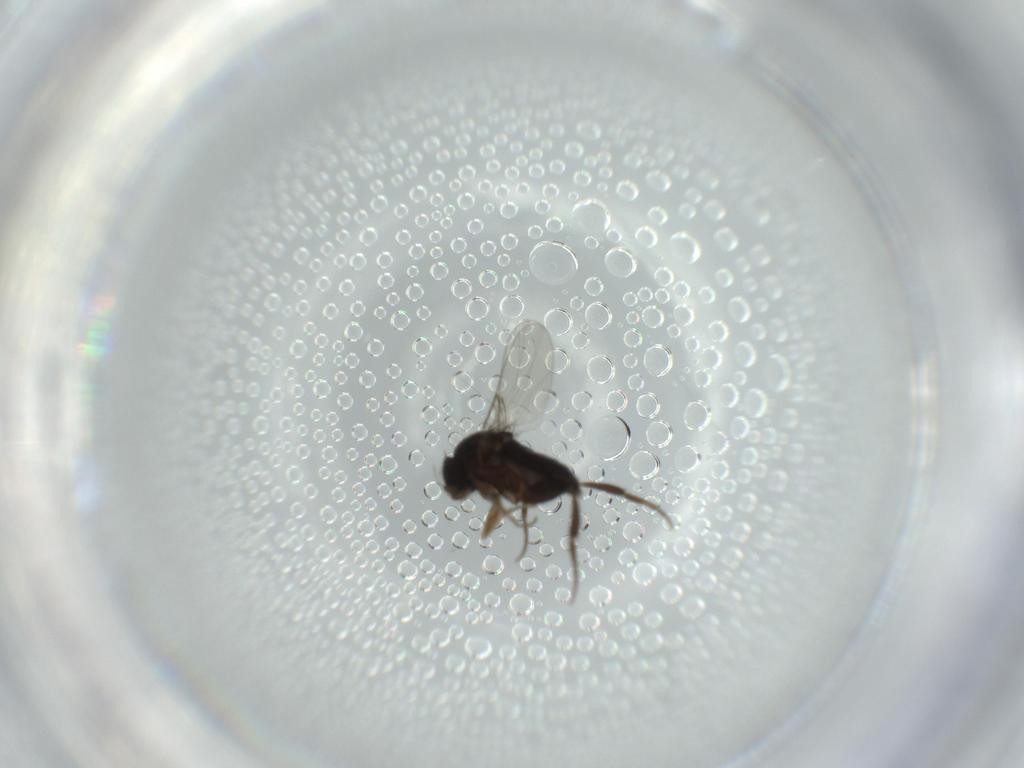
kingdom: Animalia
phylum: Arthropoda
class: Insecta
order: Diptera
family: Phoridae
